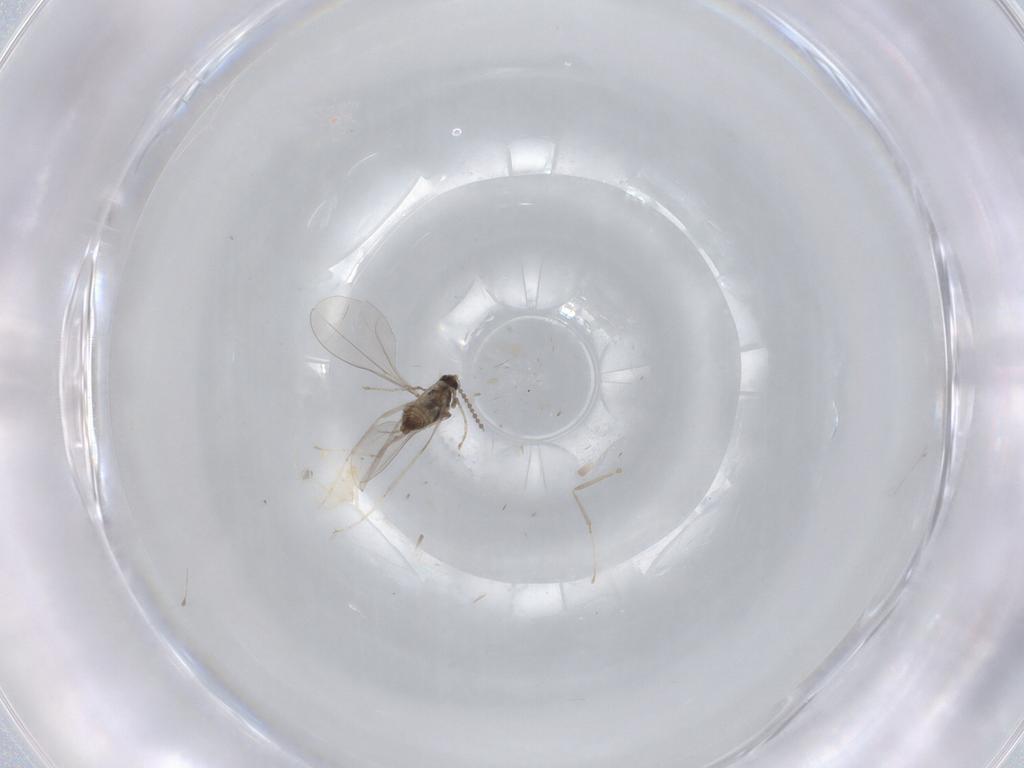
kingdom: Animalia
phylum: Arthropoda
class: Insecta
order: Diptera
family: Cecidomyiidae
